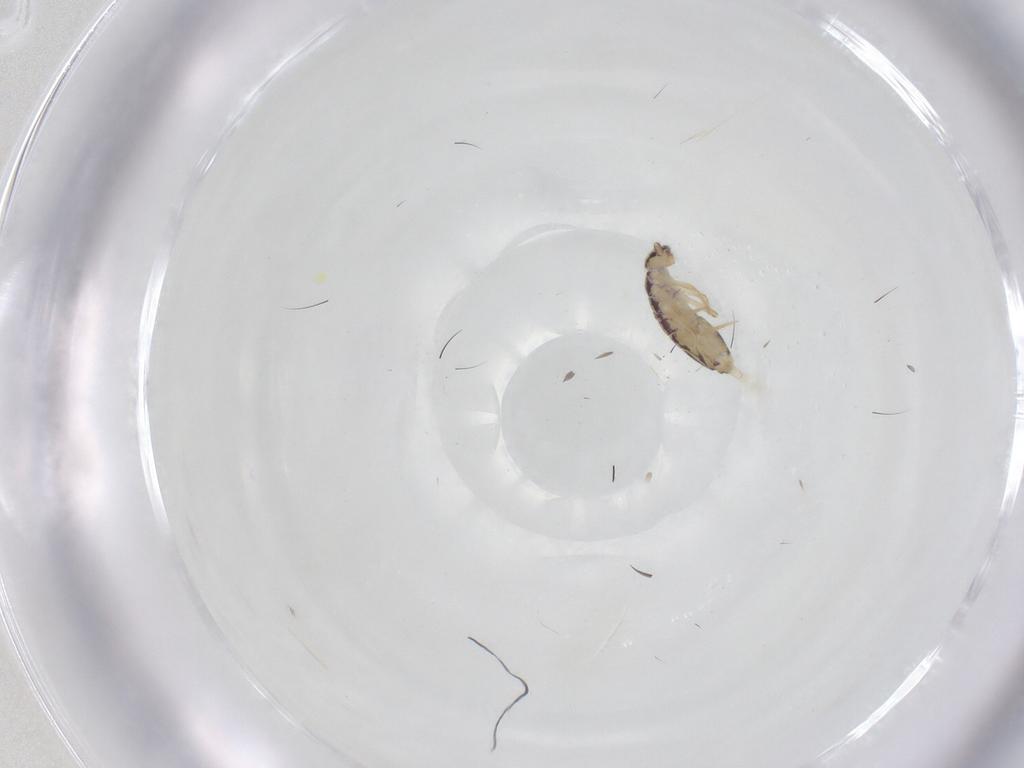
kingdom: Animalia
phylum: Arthropoda
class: Collembola
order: Entomobryomorpha
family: Entomobryidae
